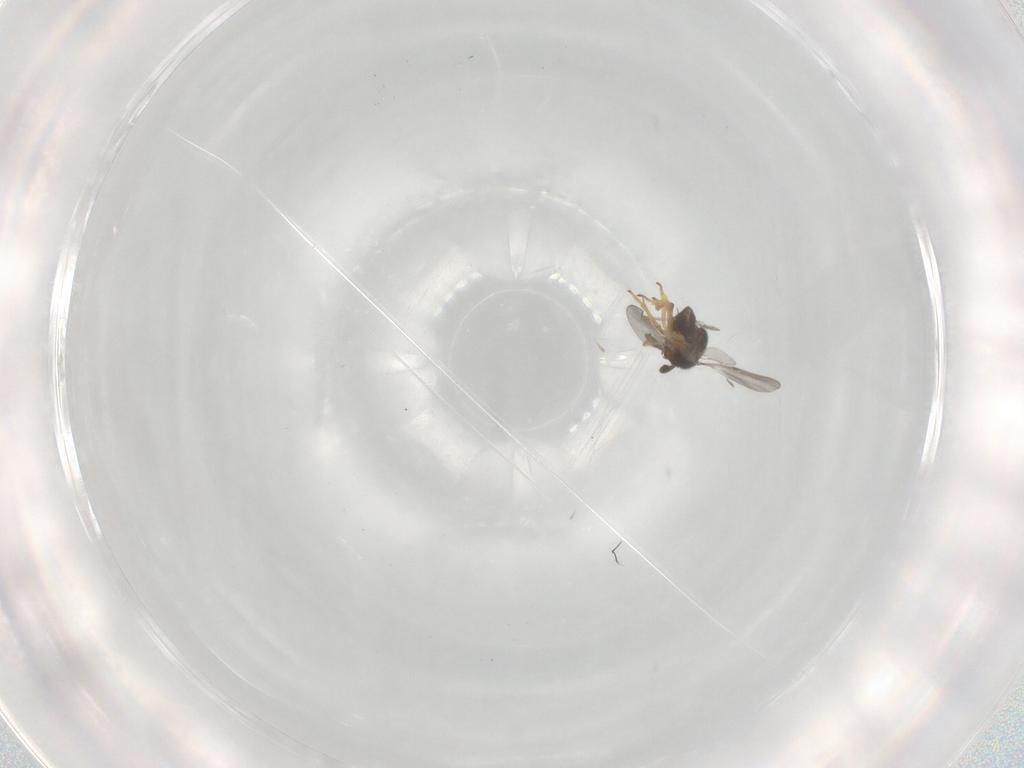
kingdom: Animalia
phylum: Arthropoda
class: Insecta
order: Hymenoptera
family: Encyrtidae
